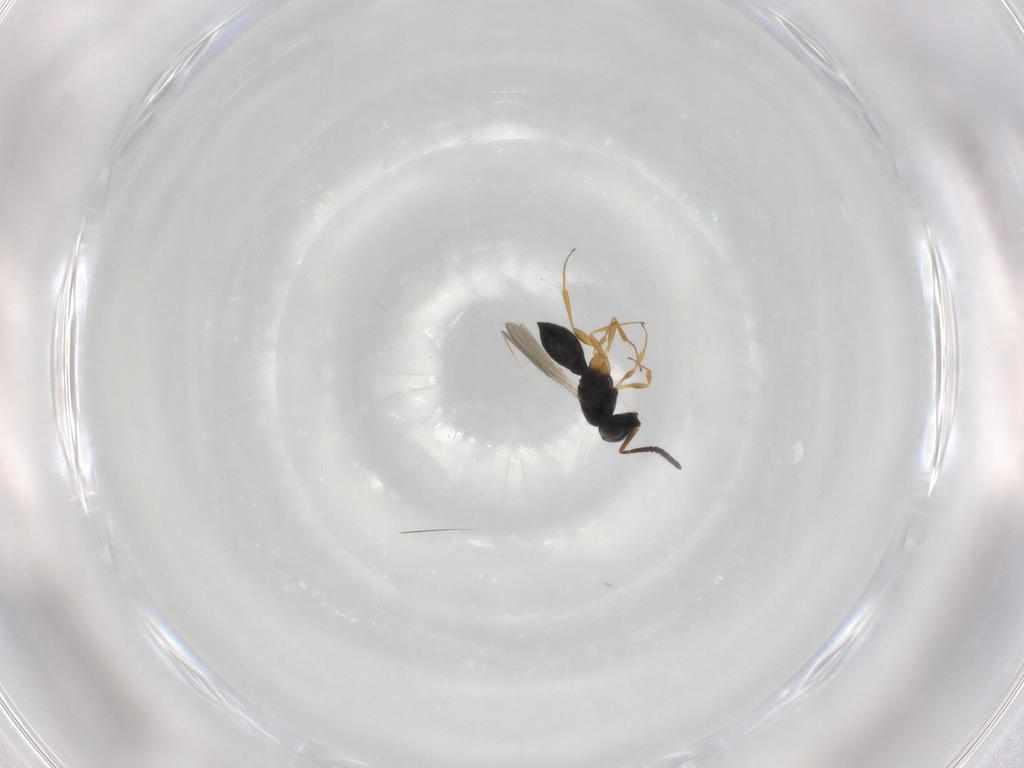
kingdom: Animalia
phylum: Arthropoda
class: Insecta
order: Hymenoptera
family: Scelionidae
